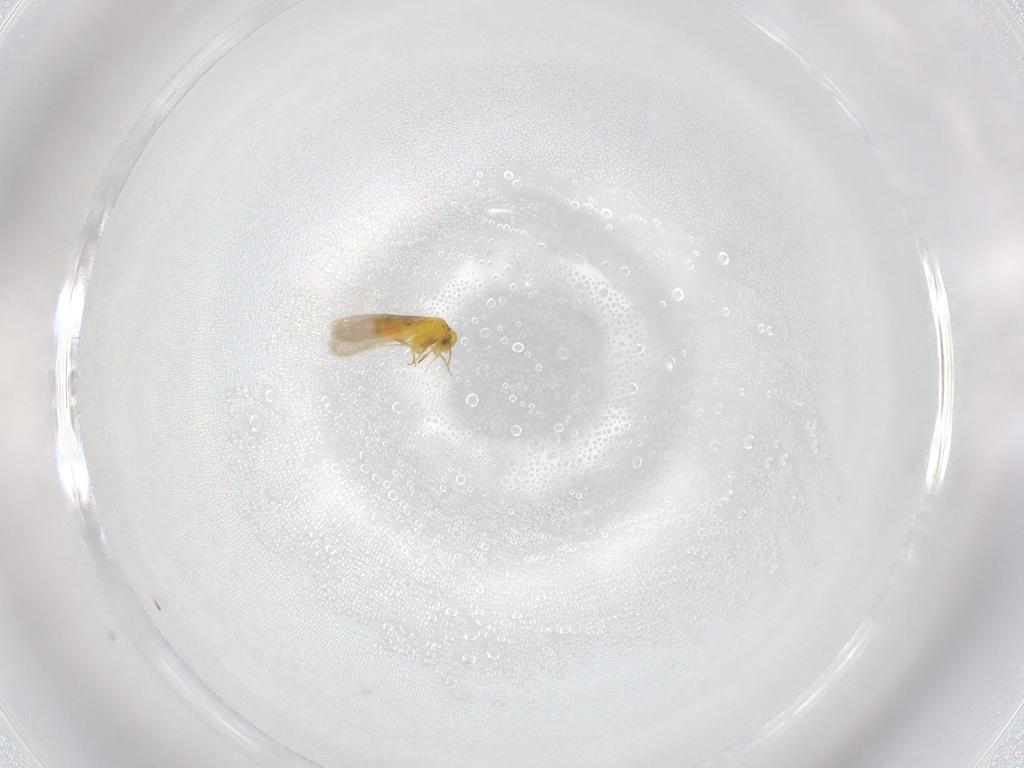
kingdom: Animalia
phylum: Arthropoda
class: Insecta
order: Hemiptera
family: Aleyrodidae
